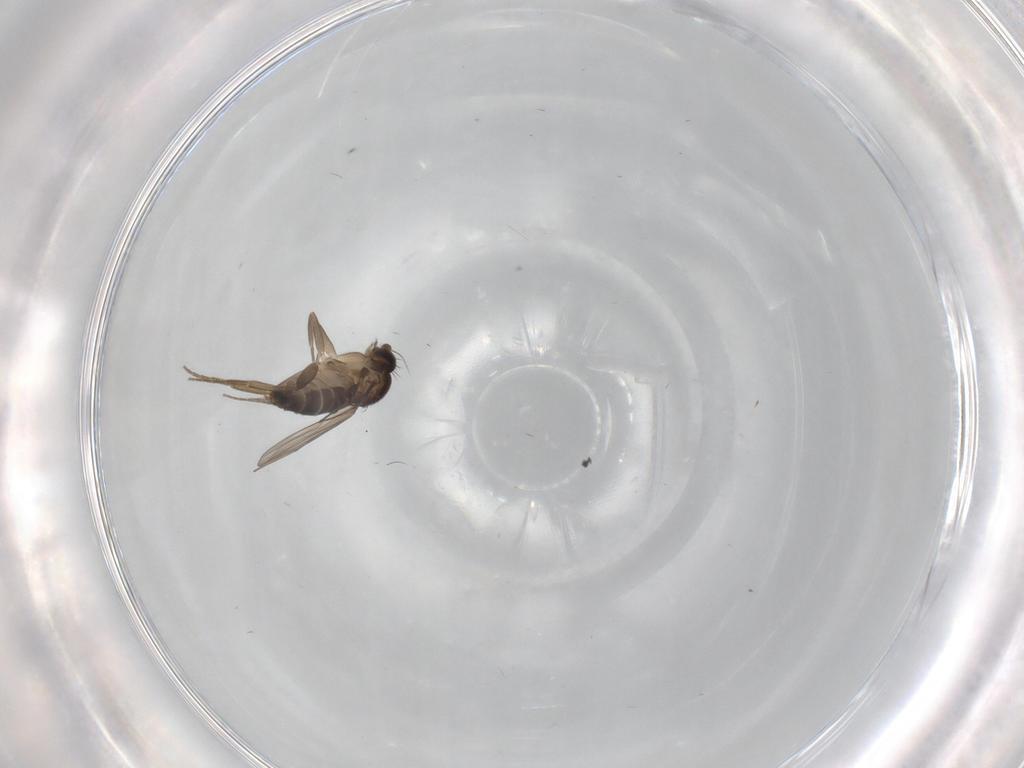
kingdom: Animalia
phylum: Arthropoda
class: Insecta
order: Diptera
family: Phoridae
